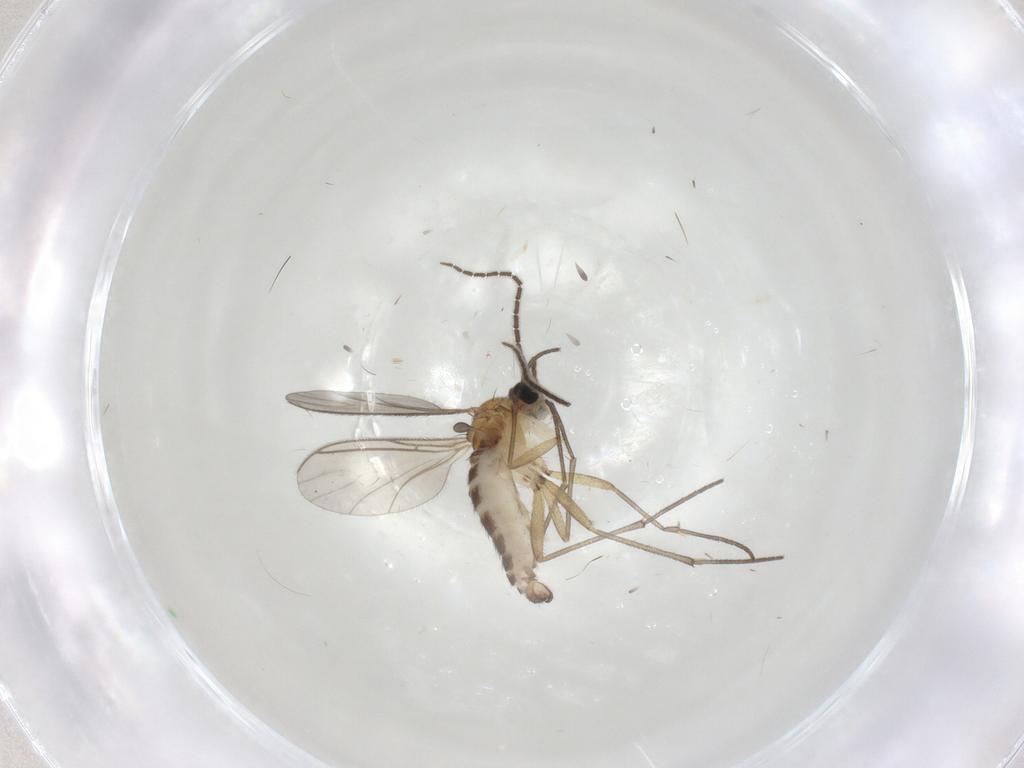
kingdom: Animalia
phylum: Arthropoda
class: Insecta
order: Diptera
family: Sciaridae
